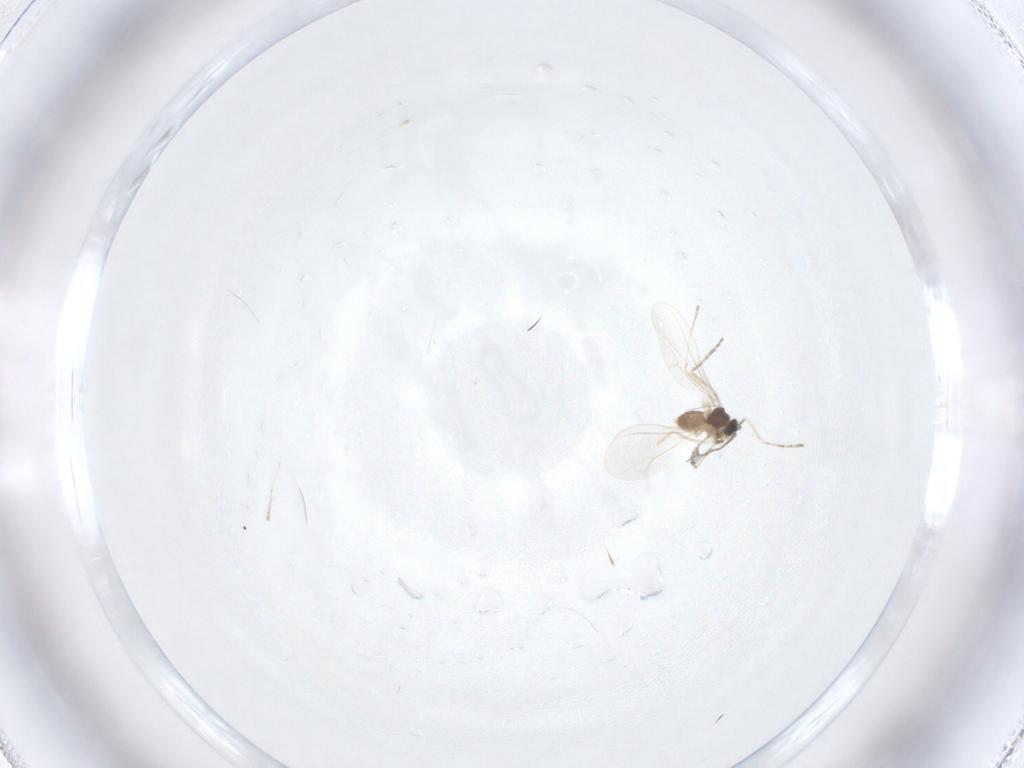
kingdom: Animalia
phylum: Arthropoda
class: Insecta
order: Diptera
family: Cecidomyiidae
